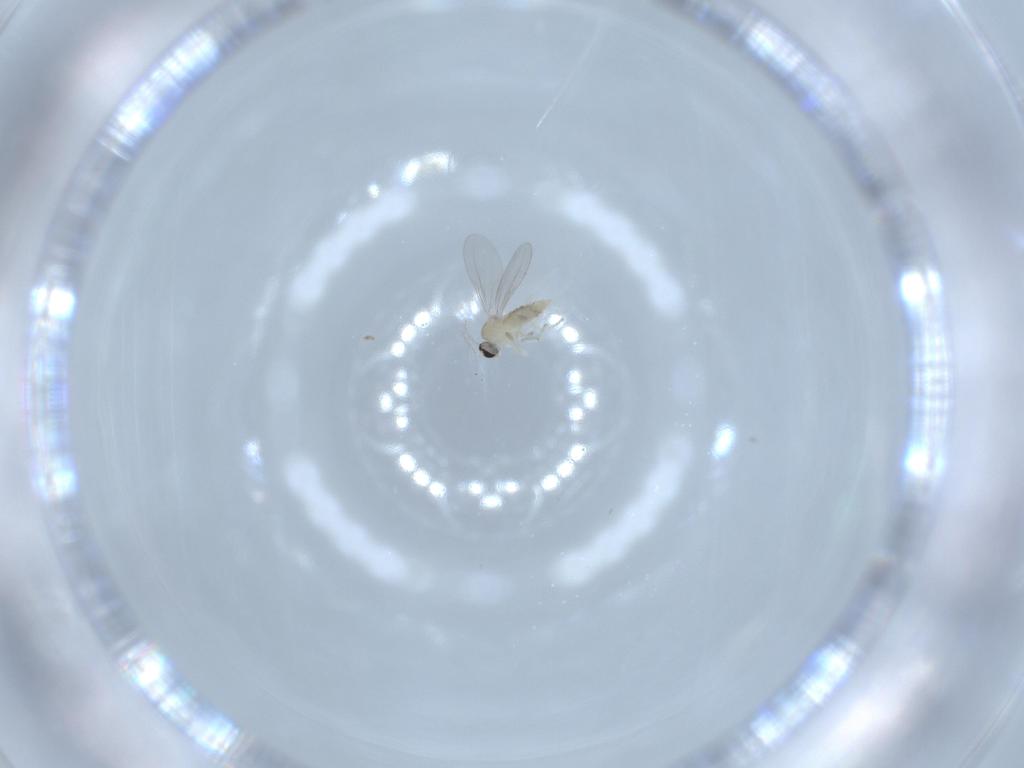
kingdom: Animalia
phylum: Arthropoda
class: Insecta
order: Diptera
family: Cecidomyiidae
